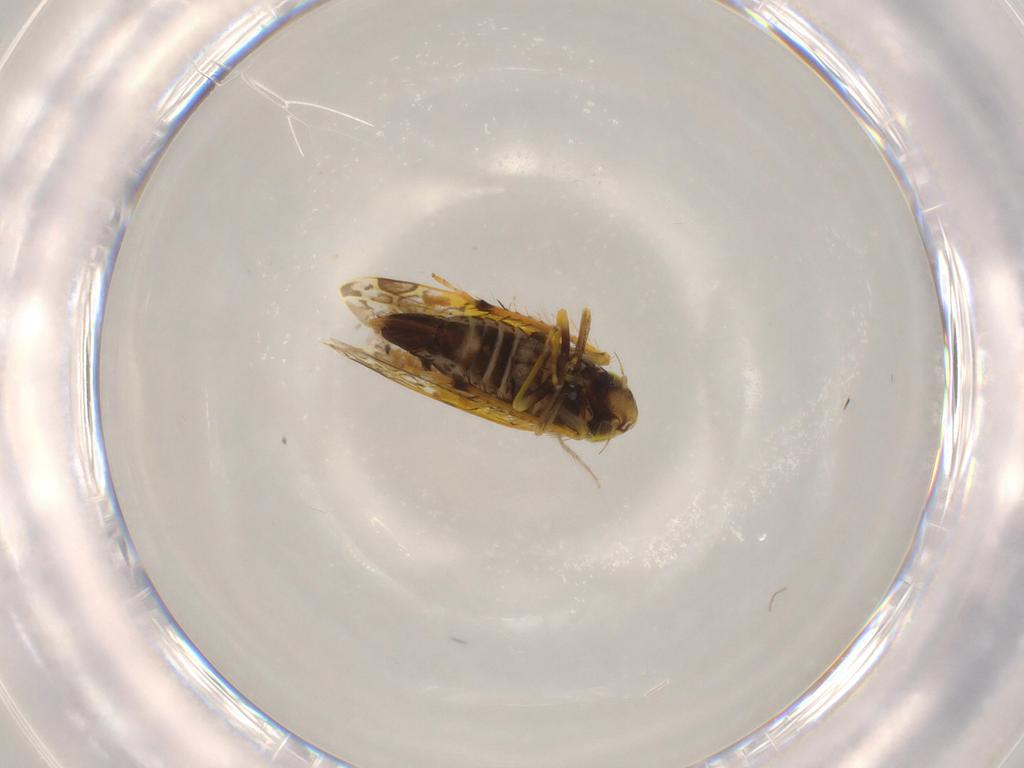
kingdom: Animalia
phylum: Arthropoda
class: Insecta
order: Hemiptera
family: Cicadellidae
